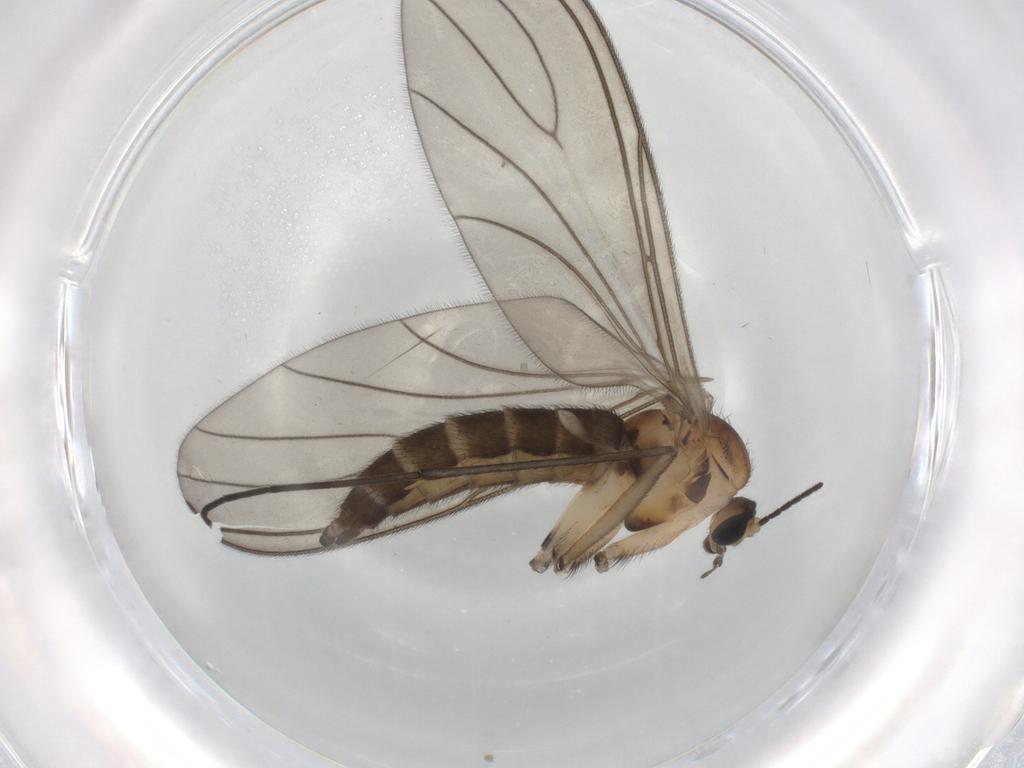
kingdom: Animalia
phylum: Arthropoda
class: Insecta
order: Diptera
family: Sciaridae
